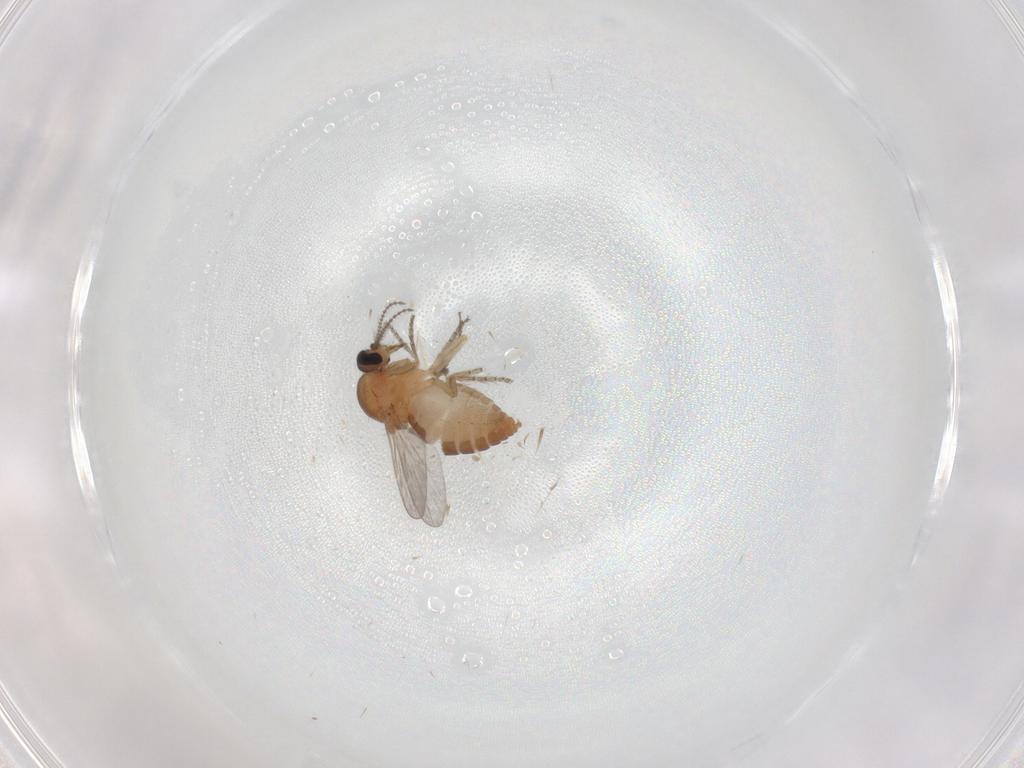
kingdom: Animalia
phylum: Arthropoda
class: Insecta
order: Diptera
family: Ceratopogonidae
